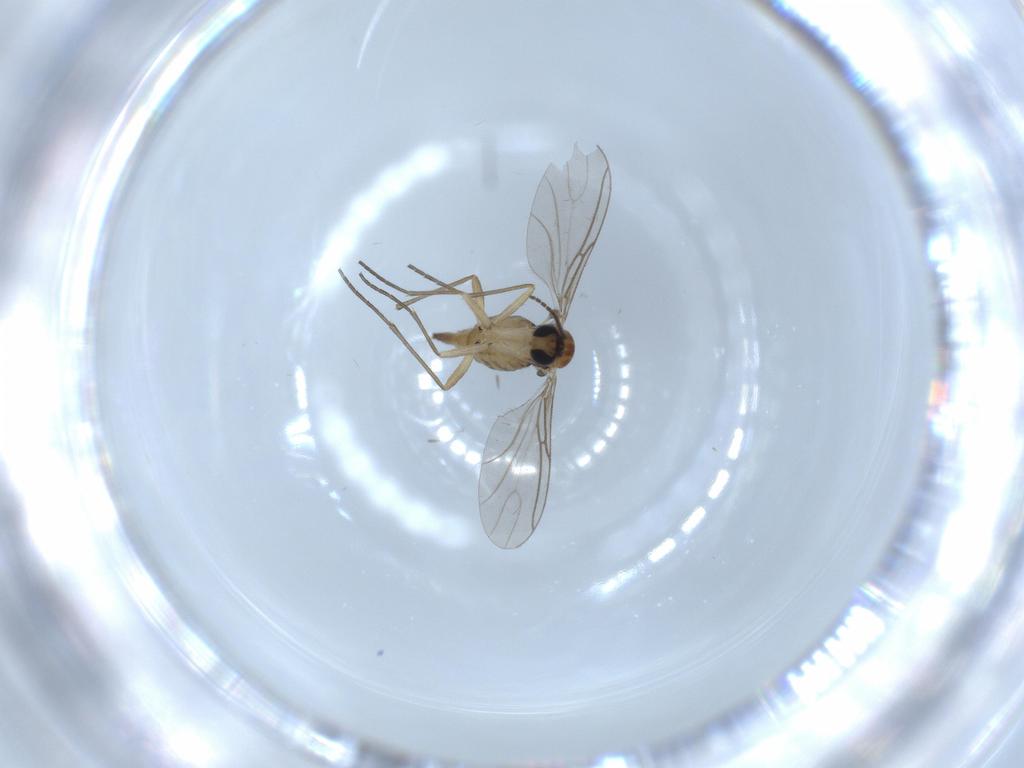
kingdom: Animalia
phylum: Arthropoda
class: Insecta
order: Diptera
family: Sciaridae
